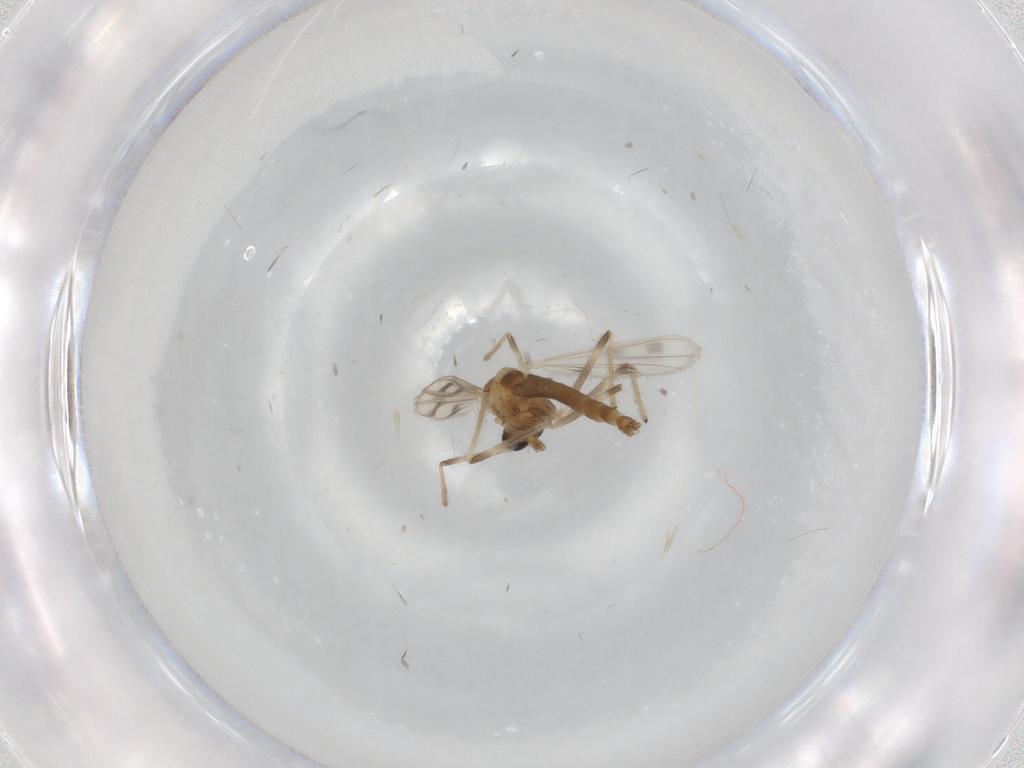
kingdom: Animalia
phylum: Arthropoda
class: Insecta
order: Diptera
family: Chironomidae
